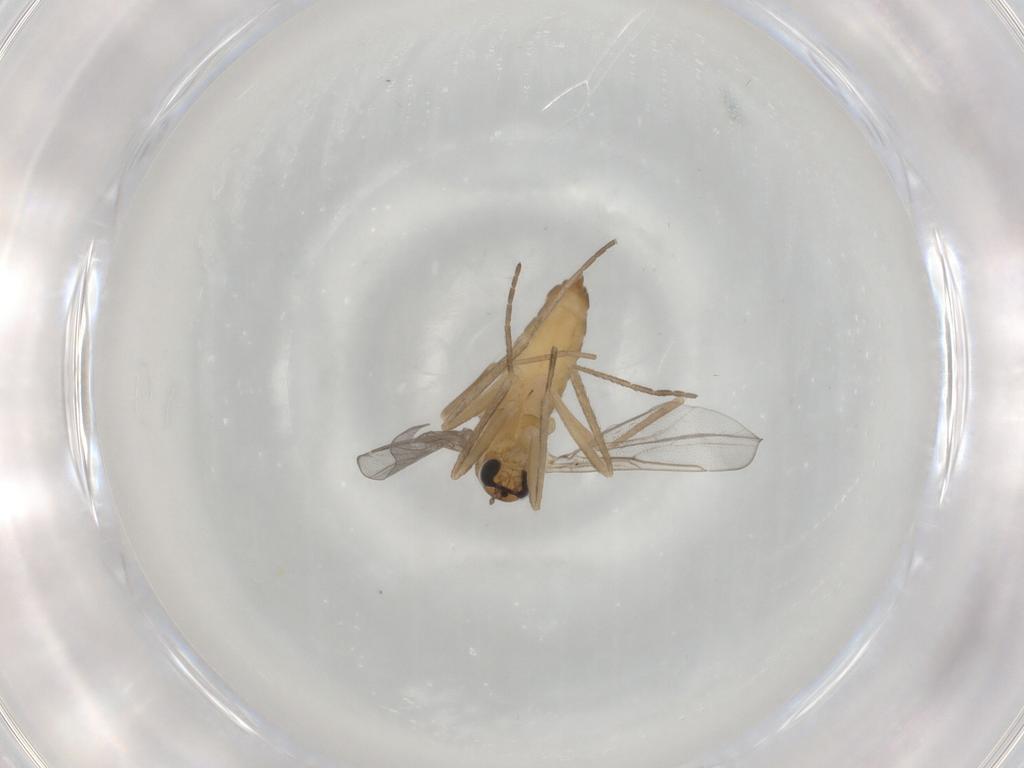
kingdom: Animalia
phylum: Arthropoda
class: Insecta
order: Diptera
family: Cecidomyiidae
